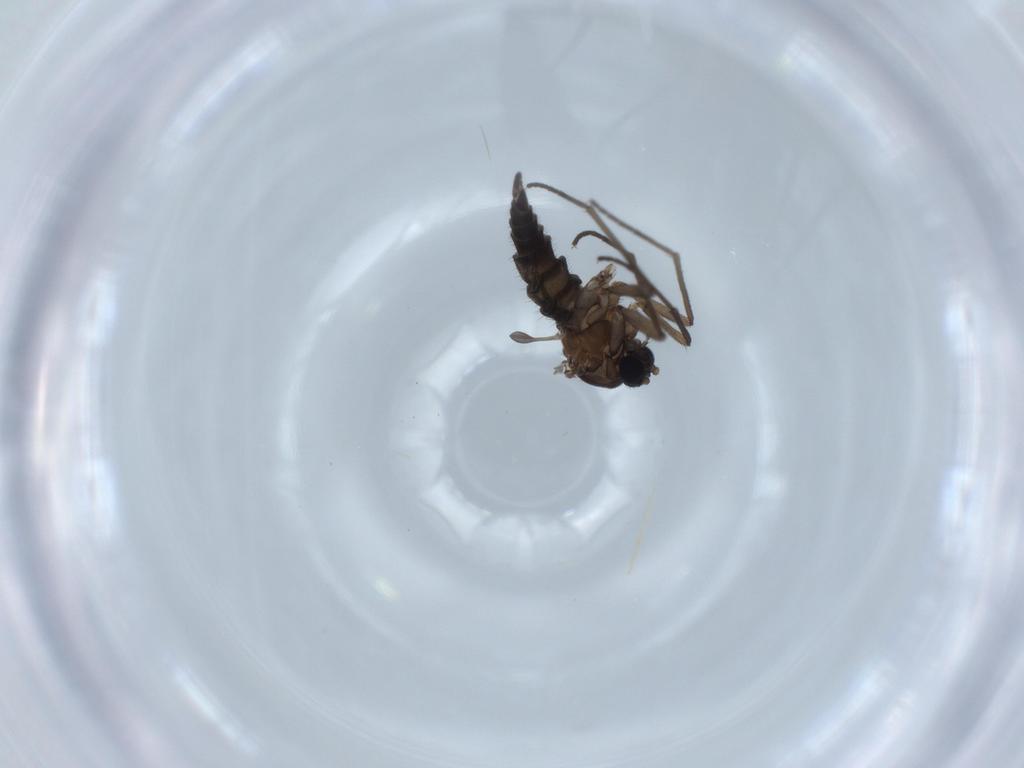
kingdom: Animalia
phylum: Arthropoda
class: Insecta
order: Diptera
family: Sciaridae
